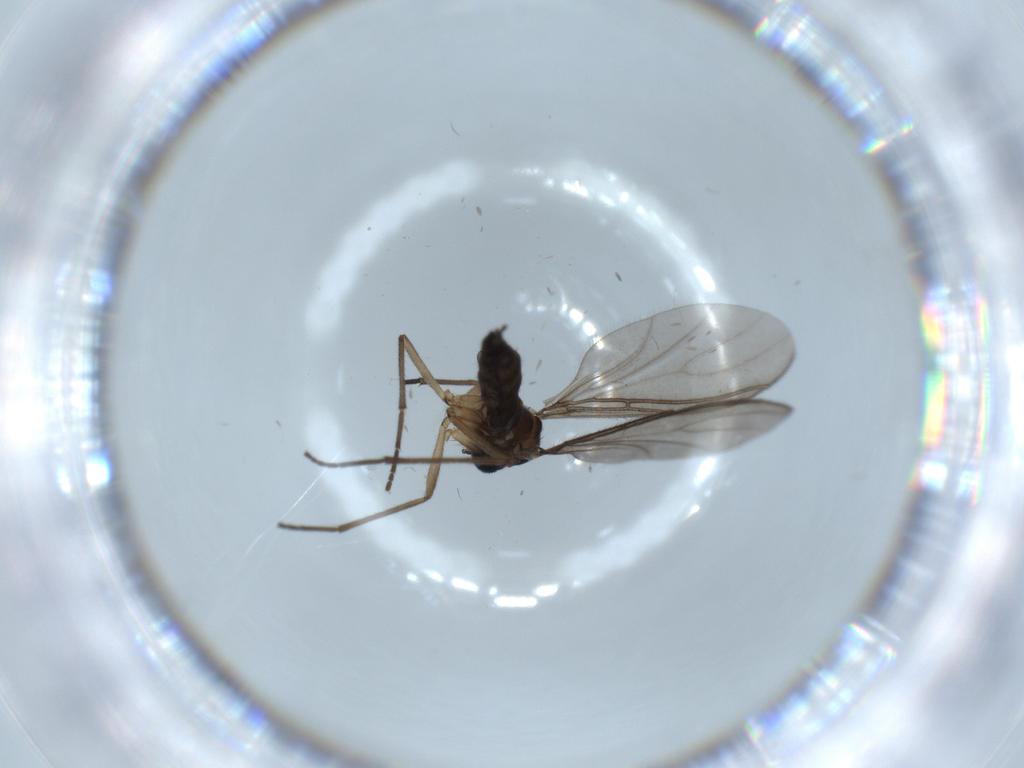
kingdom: Animalia
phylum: Arthropoda
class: Insecta
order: Diptera
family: Sciaridae
